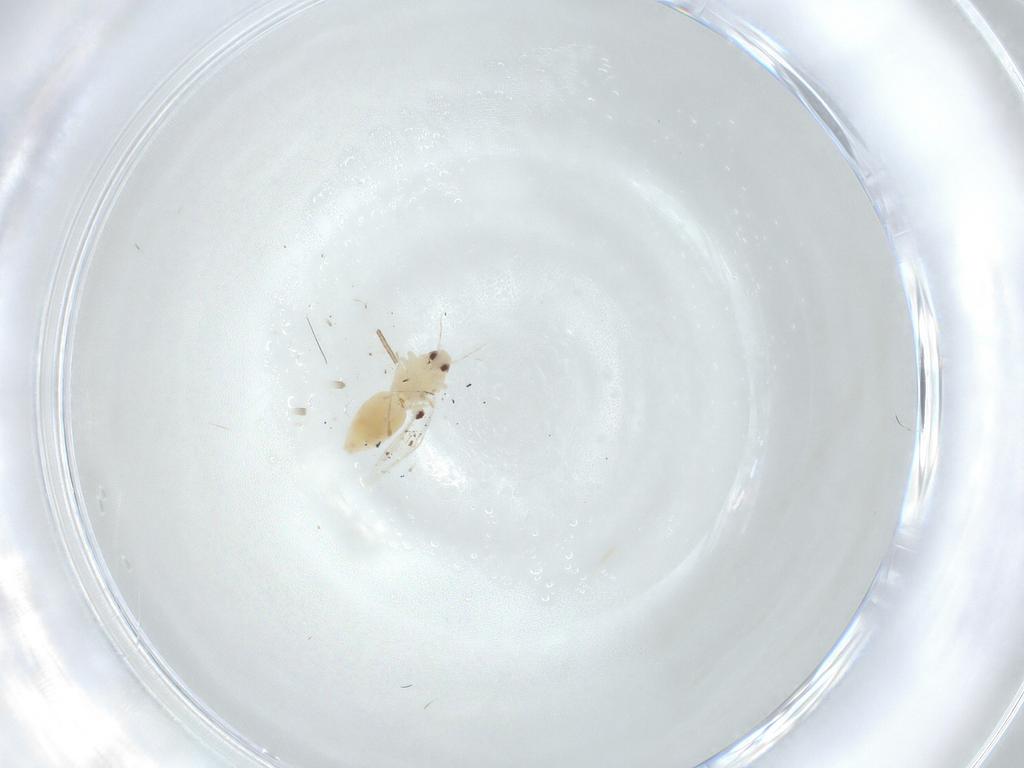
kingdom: Animalia
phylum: Arthropoda
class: Insecta
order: Hemiptera
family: Aleyrodidae
